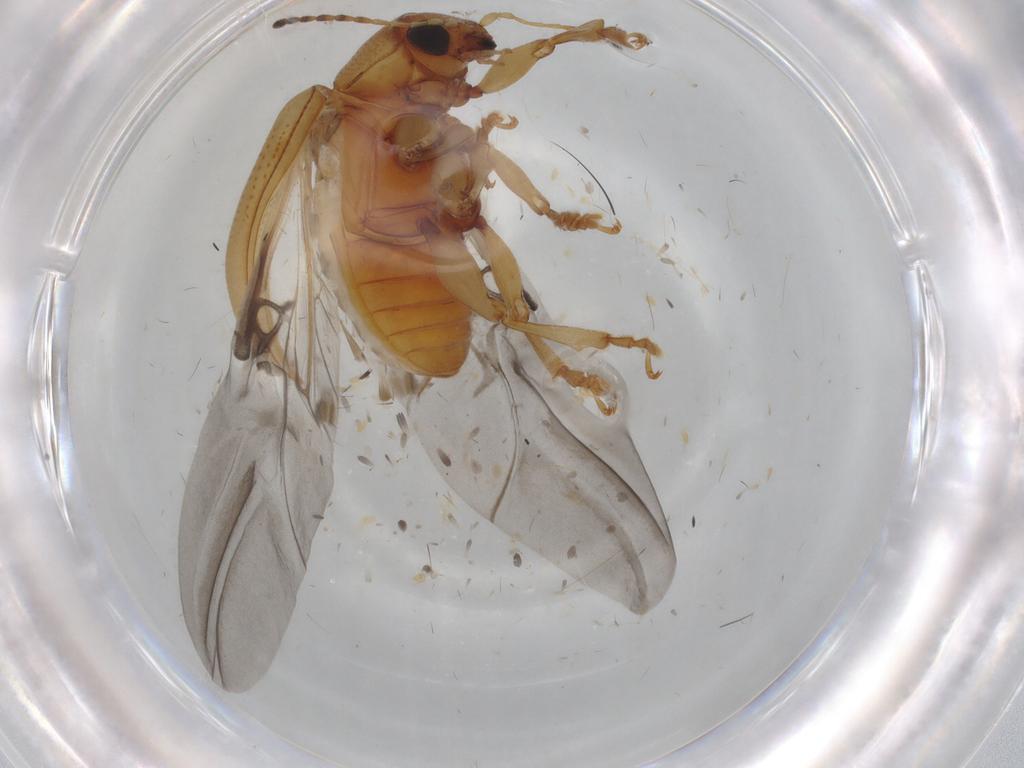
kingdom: Animalia
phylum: Arthropoda
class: Insecta
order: Coleoptera
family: Chrysomelidae
